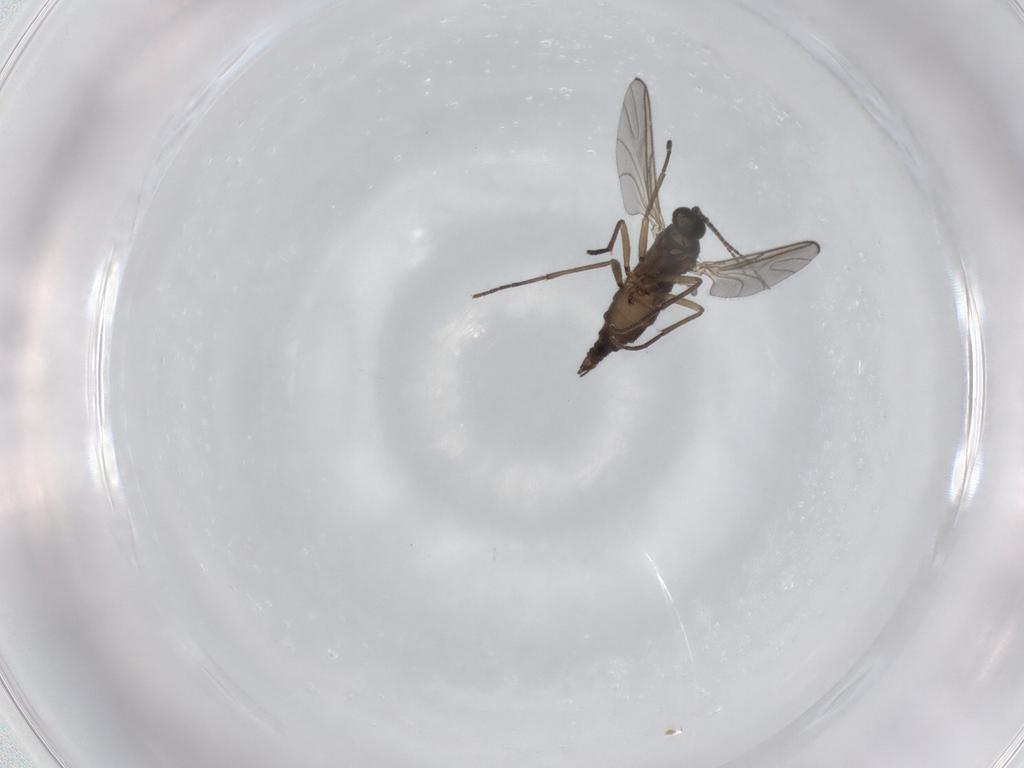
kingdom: Animalia
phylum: Arthropoda
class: Insecta
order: Diptera
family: Sciaridae
